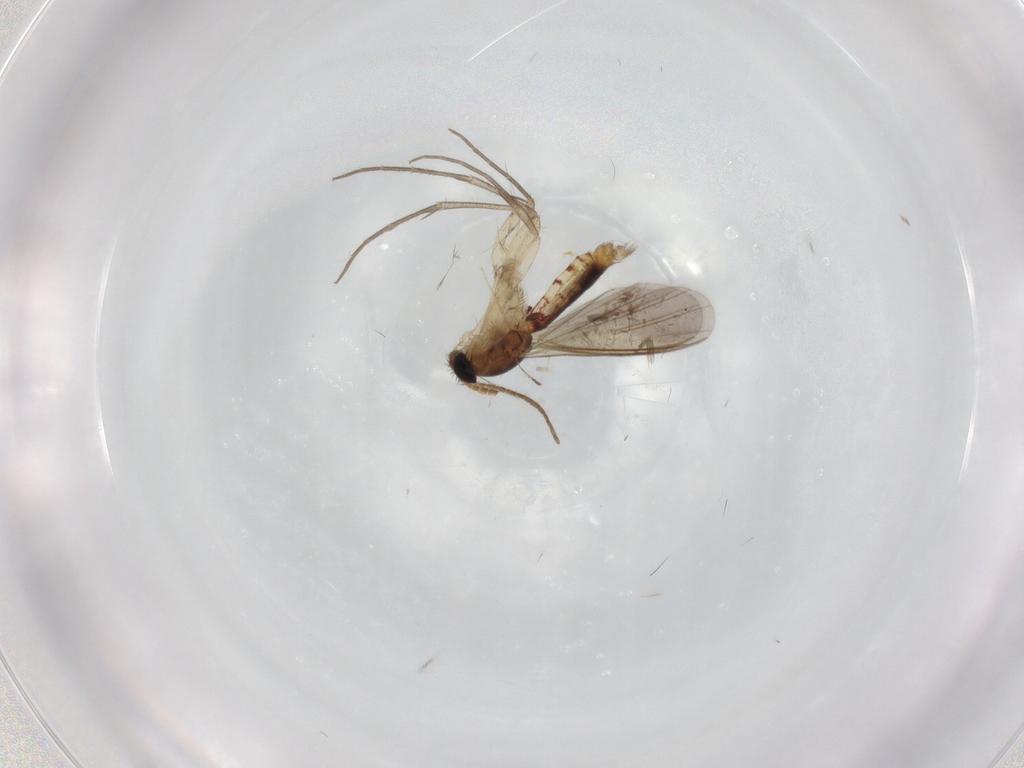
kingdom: Animalia
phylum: Arthropoda
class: Insecta
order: Diptera
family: Mycetophilidae
